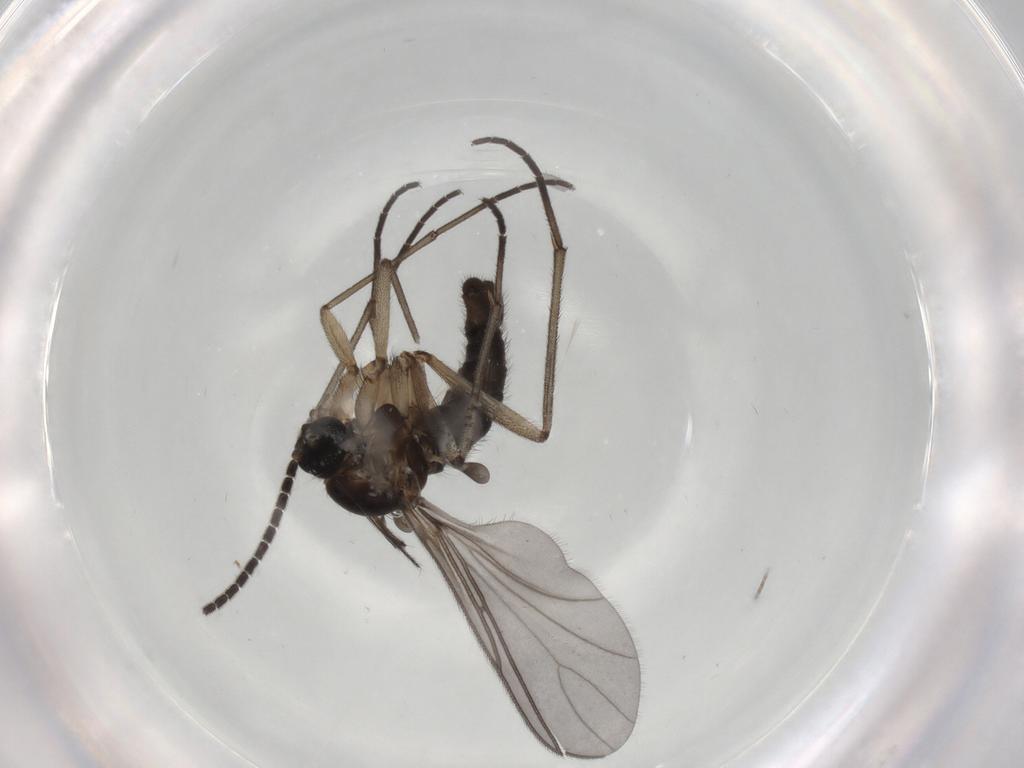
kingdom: Animalia
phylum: Arthropoda
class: Insecta
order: Diptera
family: Sciaridae
